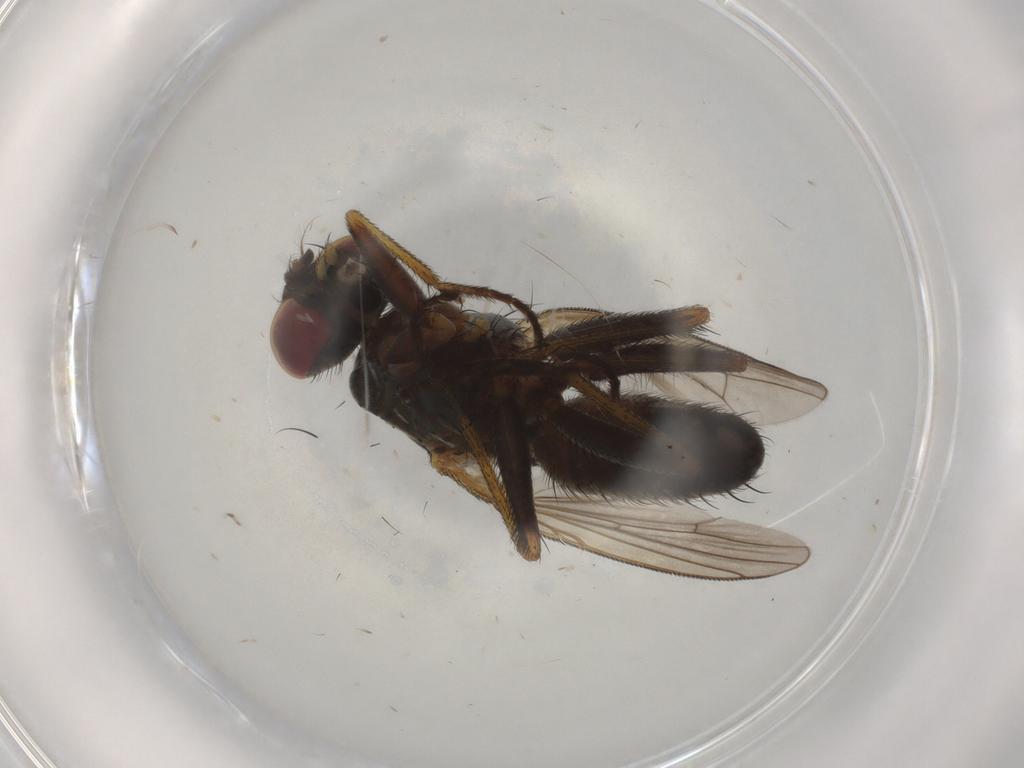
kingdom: Animalia
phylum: Arthropoda
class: Insecta
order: Diptera
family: Muscidae
